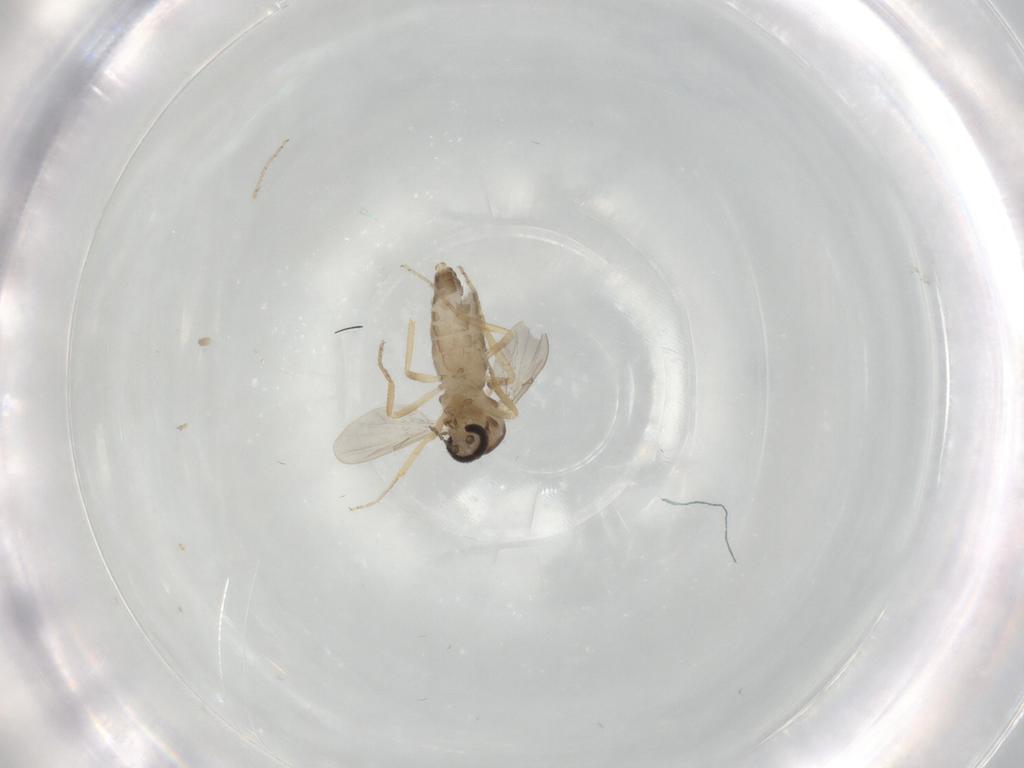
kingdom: Animalia
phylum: Arthropoda
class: Insecta
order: Diptera
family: Ceratopogonidae
